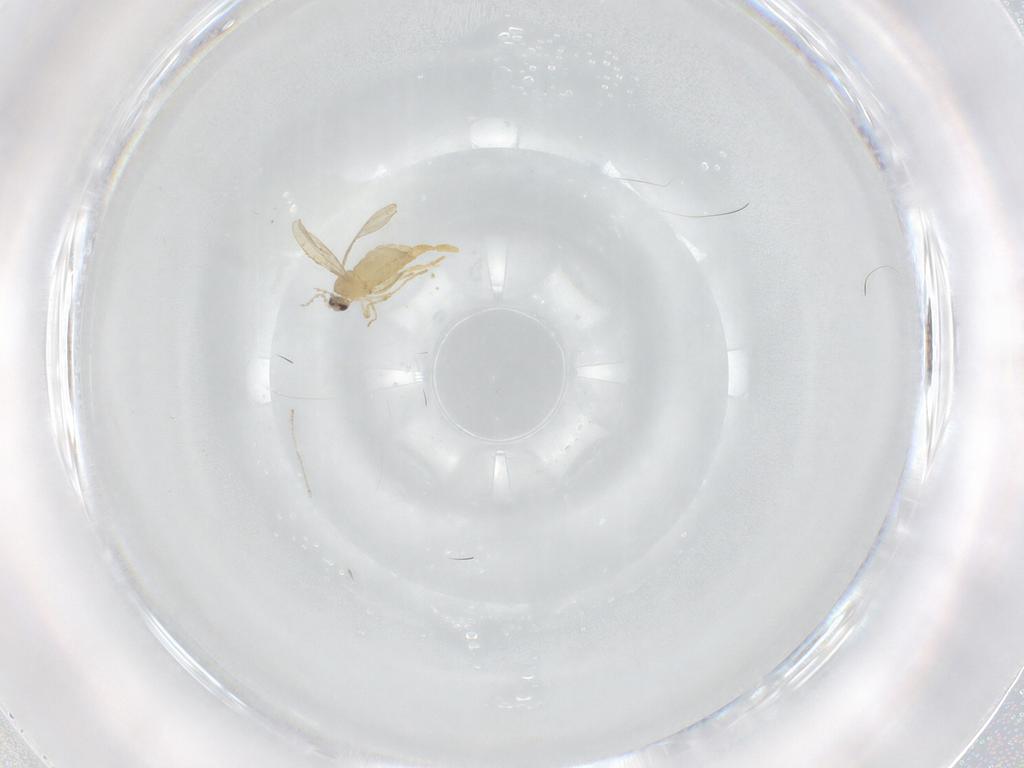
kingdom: Animalia
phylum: Arthropoda
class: Insecta
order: Diptera
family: Cecidomyiidae
